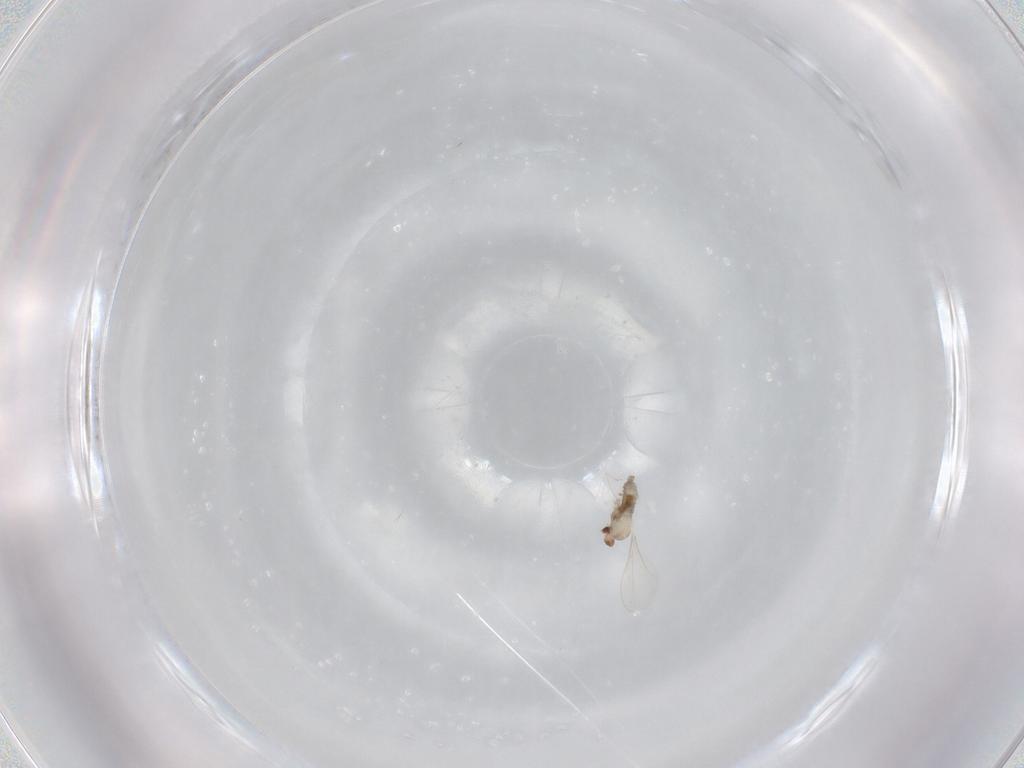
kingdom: Animalia
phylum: Arthropoda
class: Insecta
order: Diptera
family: Cecidomyiidae
